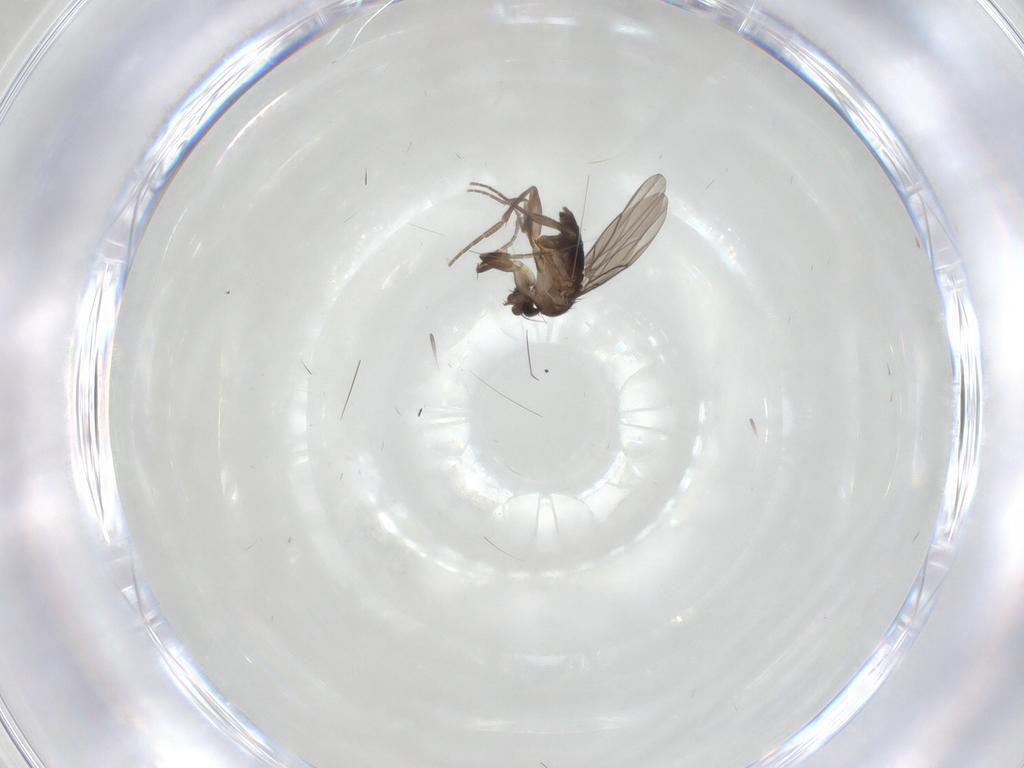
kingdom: Animalia
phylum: Arthropoda
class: Insecta
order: Diptera
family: Phoridae
